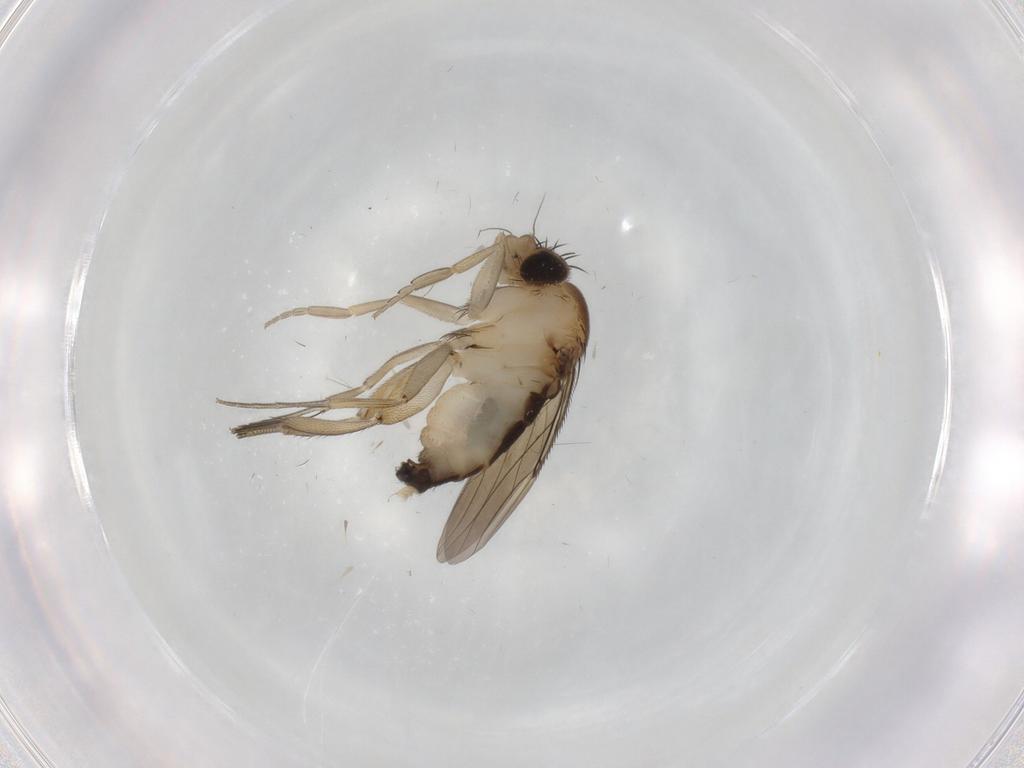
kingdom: Animalia
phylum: Arthropoda
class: Insecta
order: Diptera
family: Phoridae
